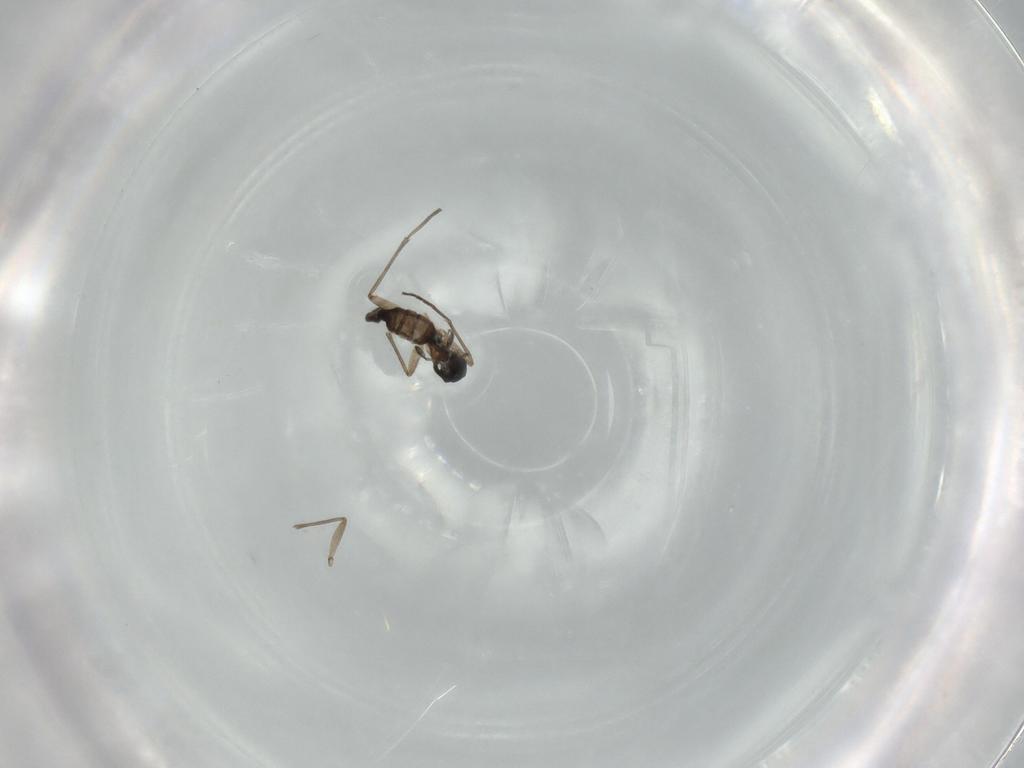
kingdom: Animalia
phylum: Arthropoda
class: Insecta
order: Diptera
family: Sciaridae
